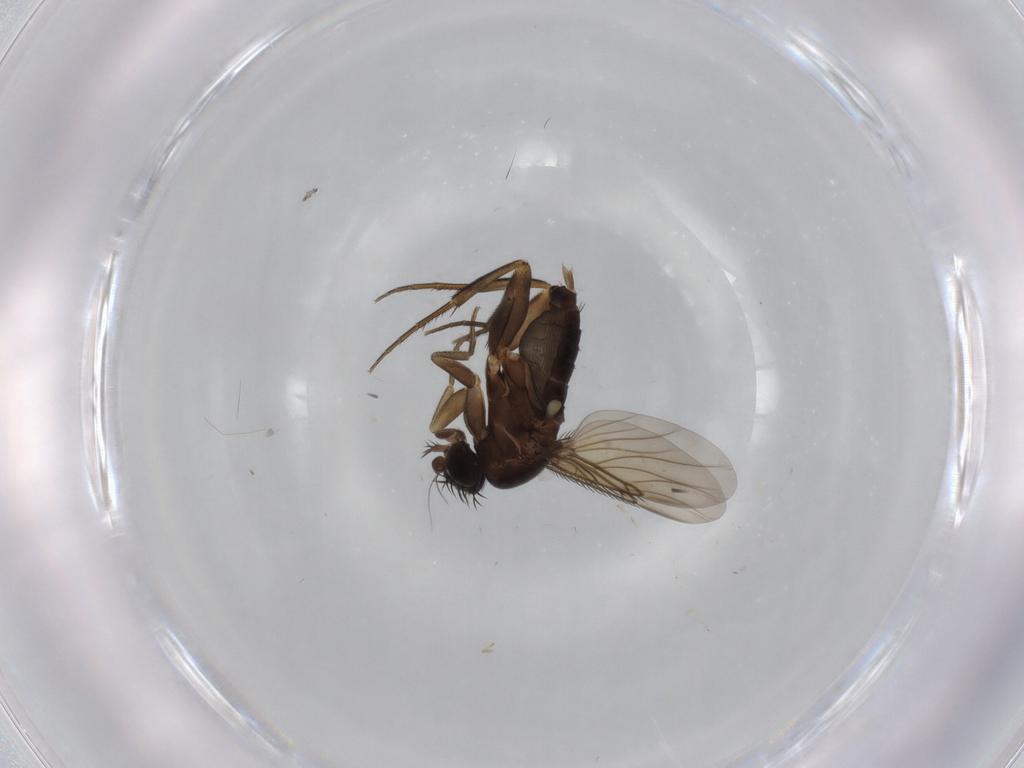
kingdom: Animalia
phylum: Arthropoda
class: Insecta
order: Diptera
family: Phoridae
